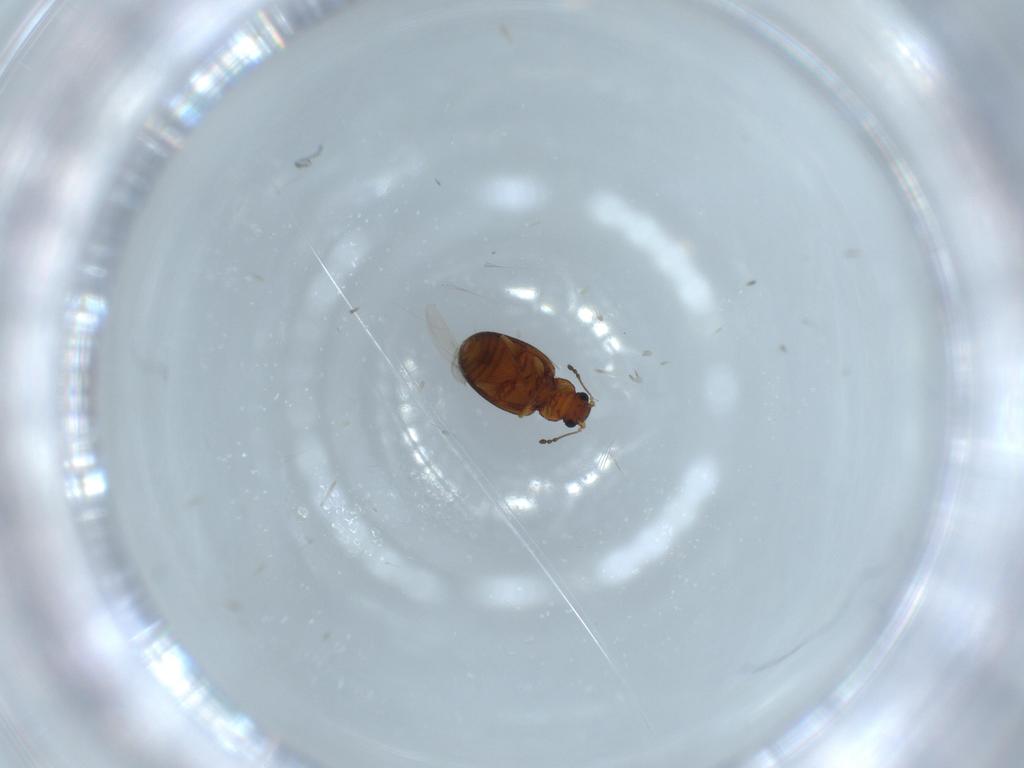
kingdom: Animalia
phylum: Arthropoda
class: Insecta
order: Coleoptera
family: Latridiidae
